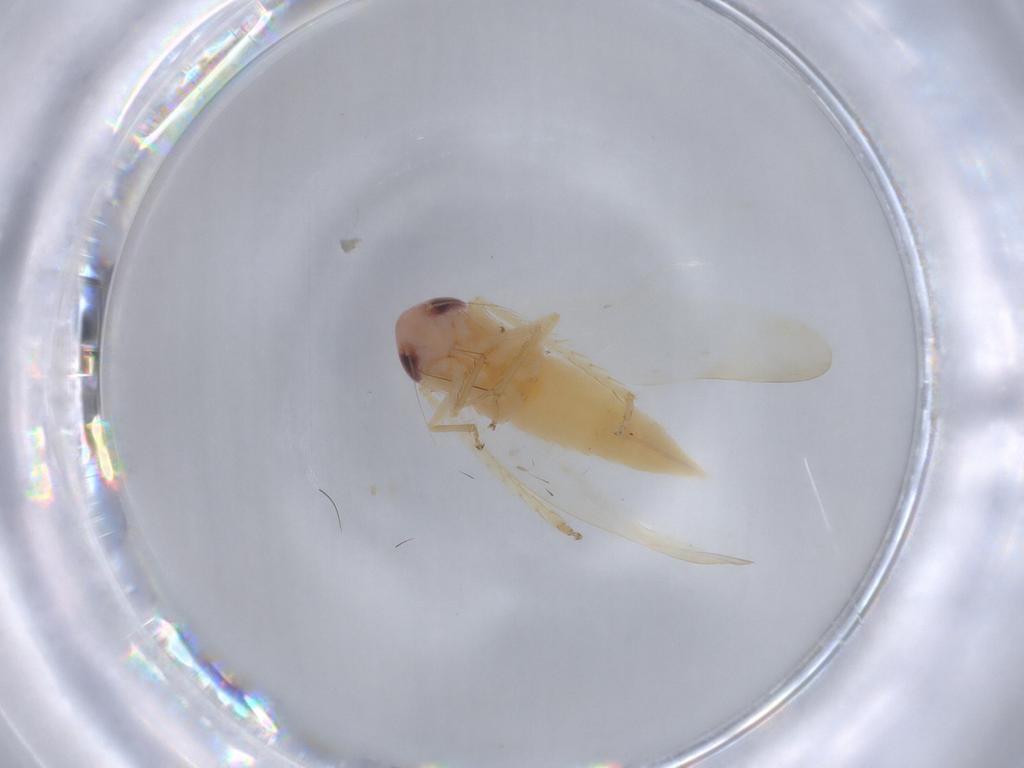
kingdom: Animalia
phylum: Arthropoda
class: Insecta
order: Hemiptera
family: Cicadellidae
